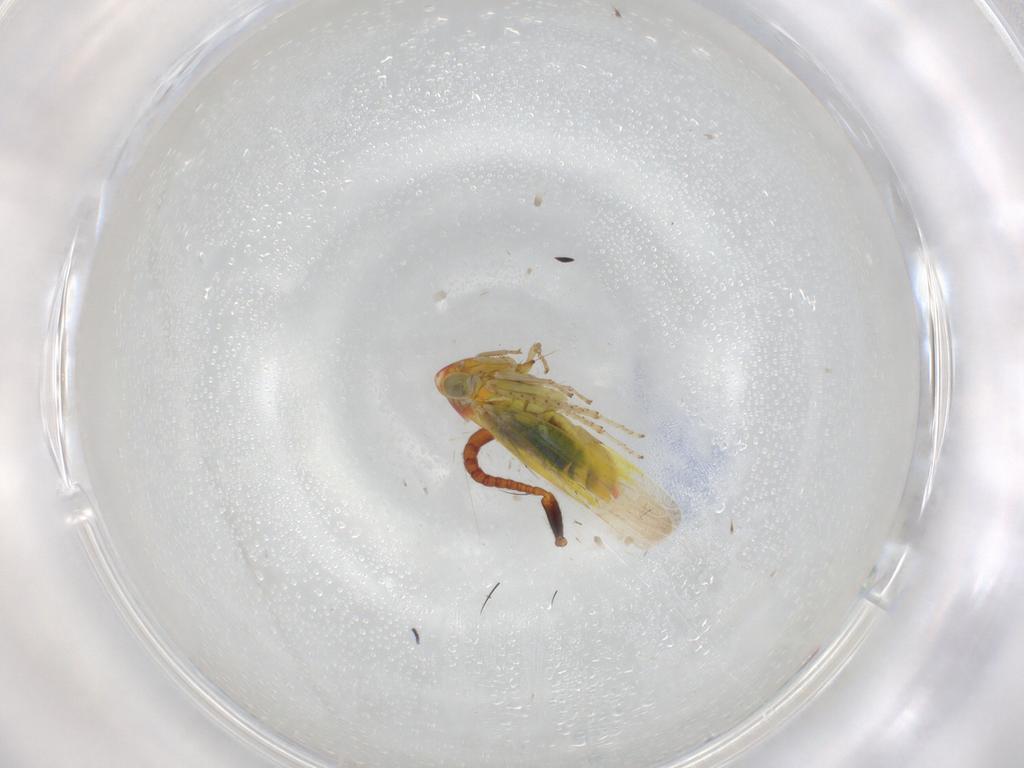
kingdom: Animalia
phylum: Arthropoda
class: Insecta
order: Hemiptera
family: Cicadellidae
